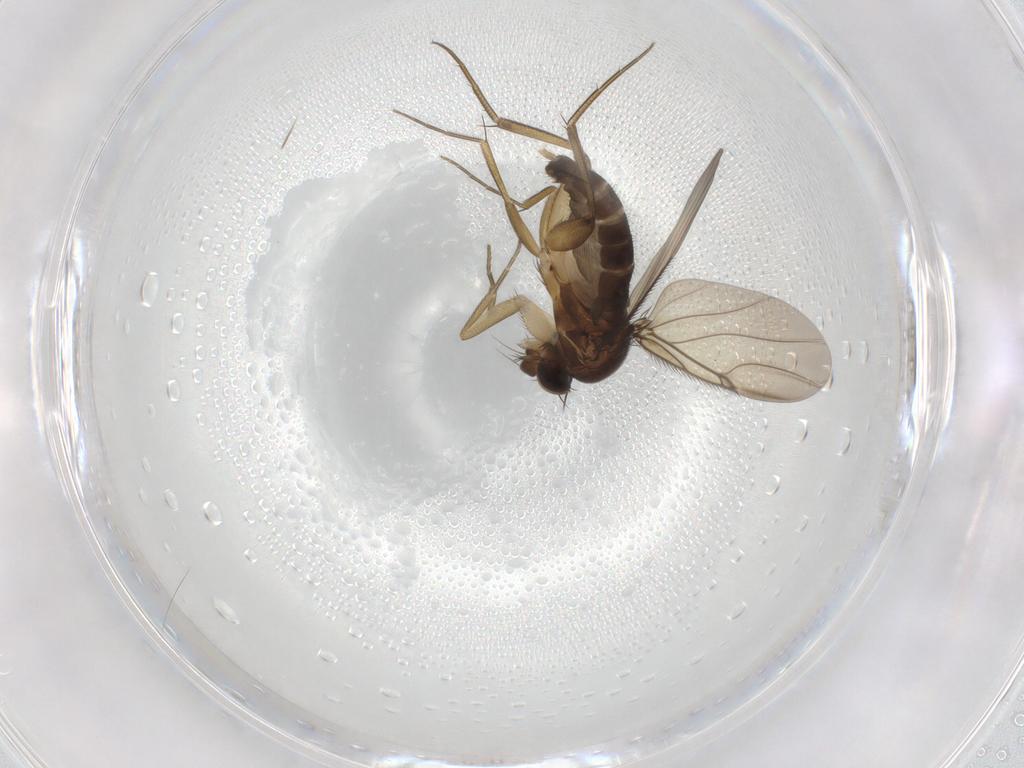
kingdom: Animalia
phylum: Arthropoda
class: Insecta
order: Diptera
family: Phoridae
